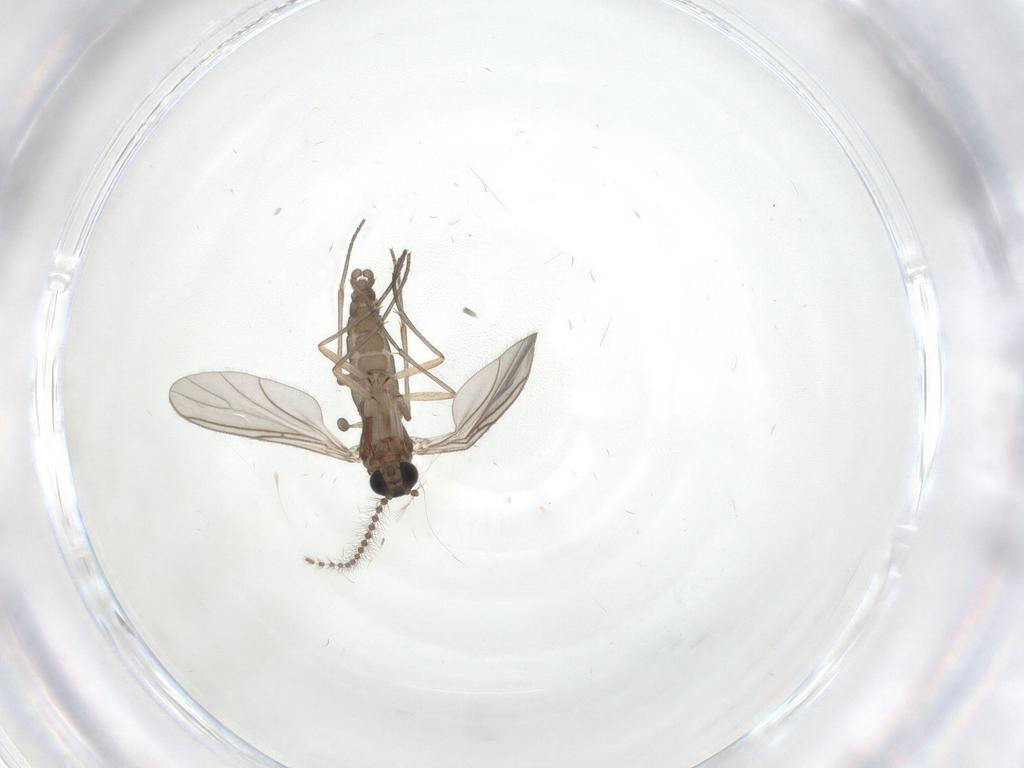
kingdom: Animalia
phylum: Arthropoda
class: Insecta
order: Diptera
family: Sciaridae
